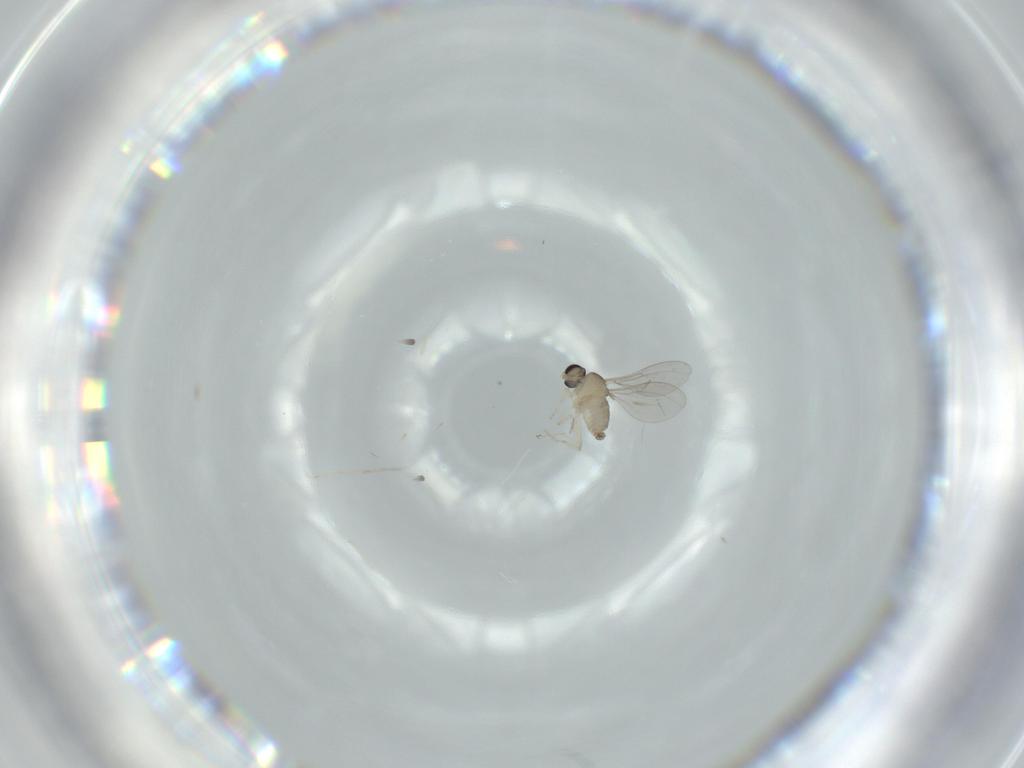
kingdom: Animalia
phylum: Arthropoda
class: Insecta
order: Diptera
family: Cecidomyiidae
